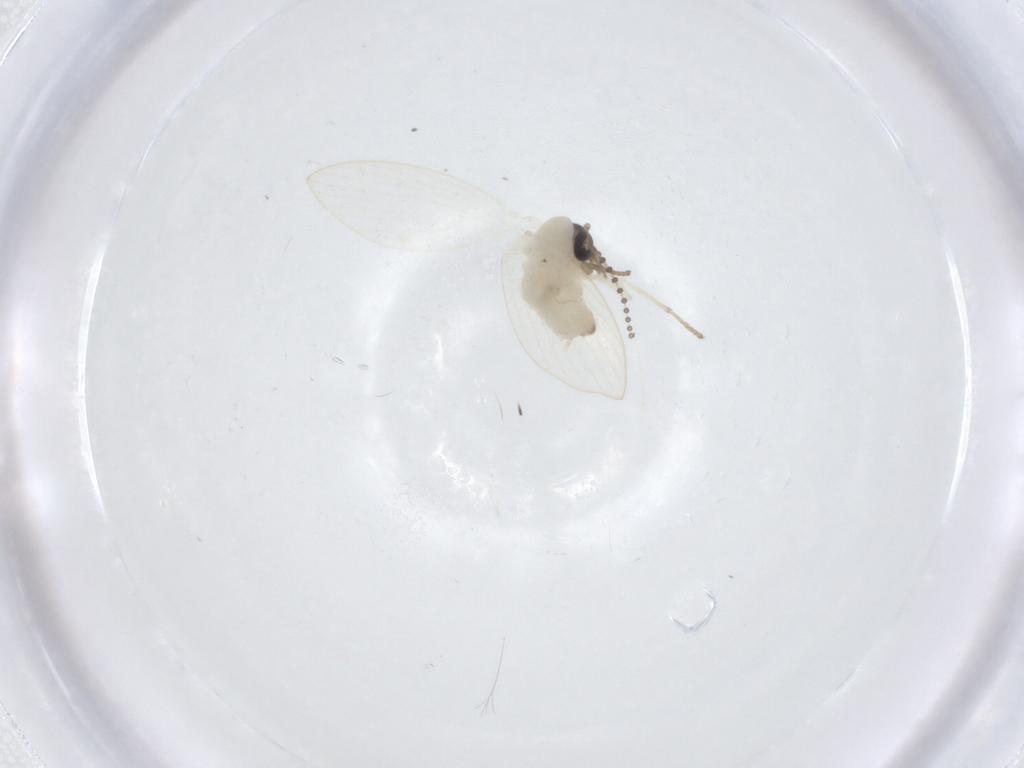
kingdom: Animalia
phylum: Arthropoda
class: Insecta
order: Diptera
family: Psychodidae
